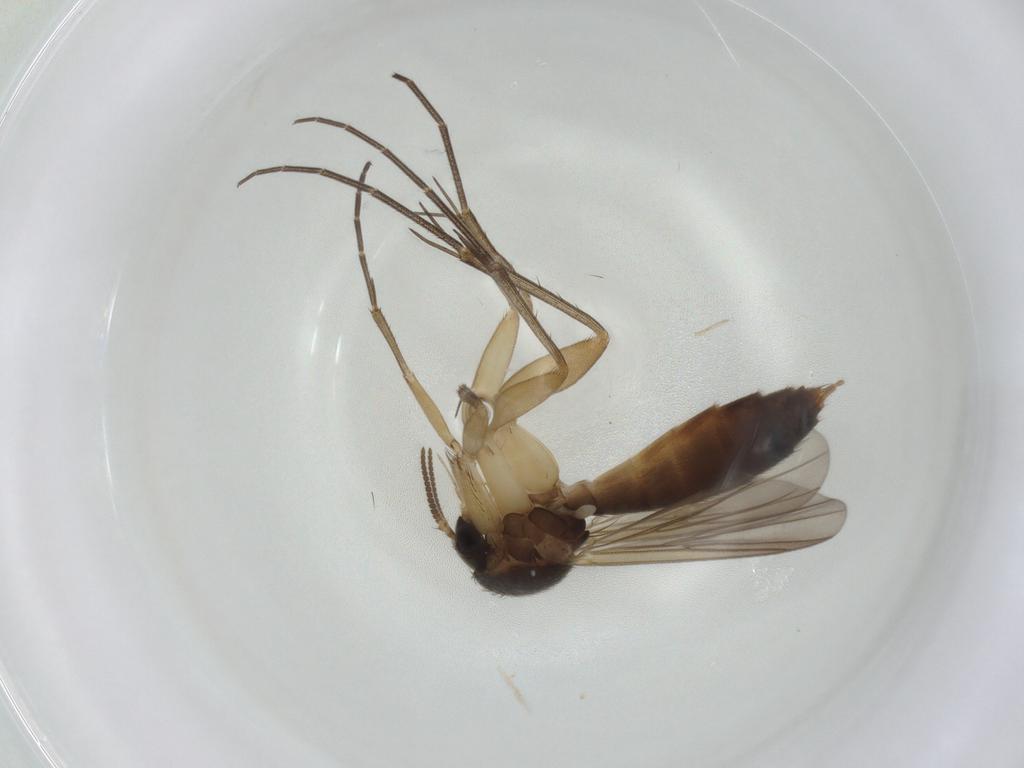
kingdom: Animalia
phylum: Arthropoda
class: Insecta
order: Diptera
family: Mycetophilidae
